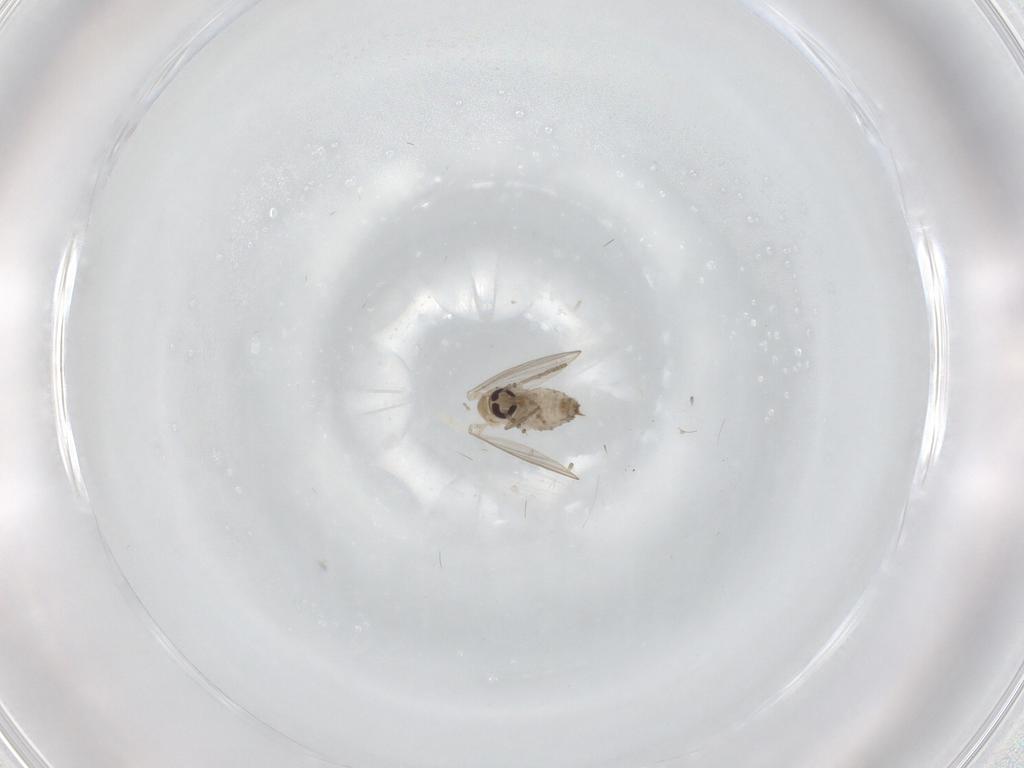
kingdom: Animalia
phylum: Arthropoda
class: Insecta
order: Diptera
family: Psychodidae
